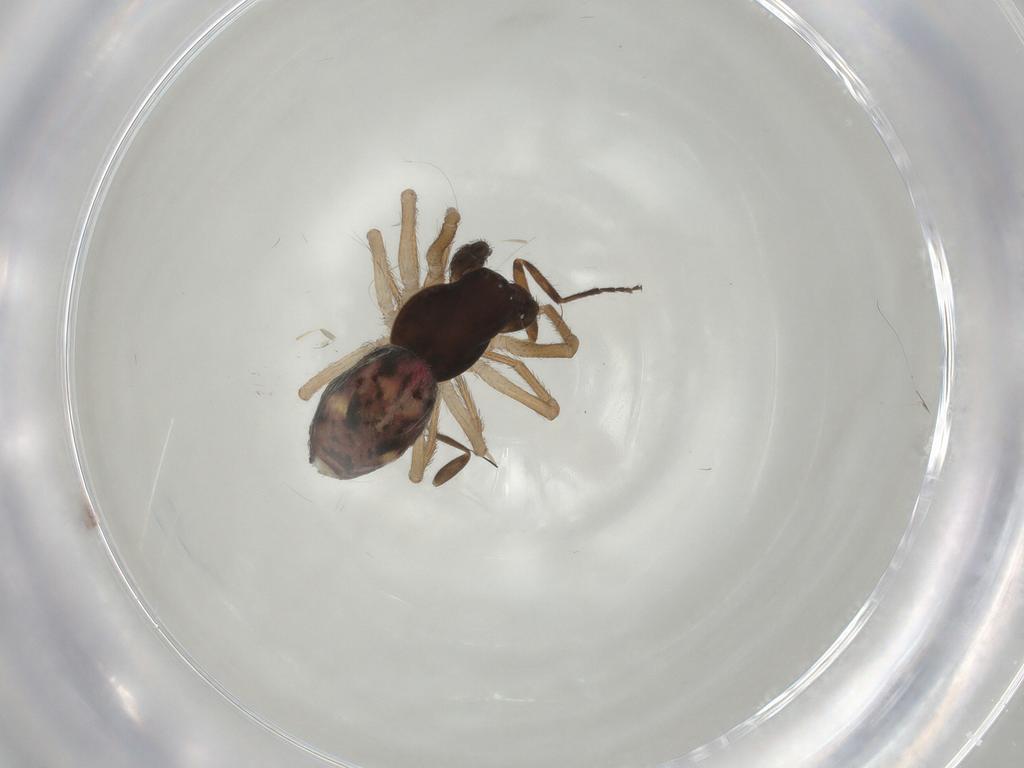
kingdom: Animalia
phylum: Arthropoda
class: Arachnida
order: Araneae
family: Dictynidae
